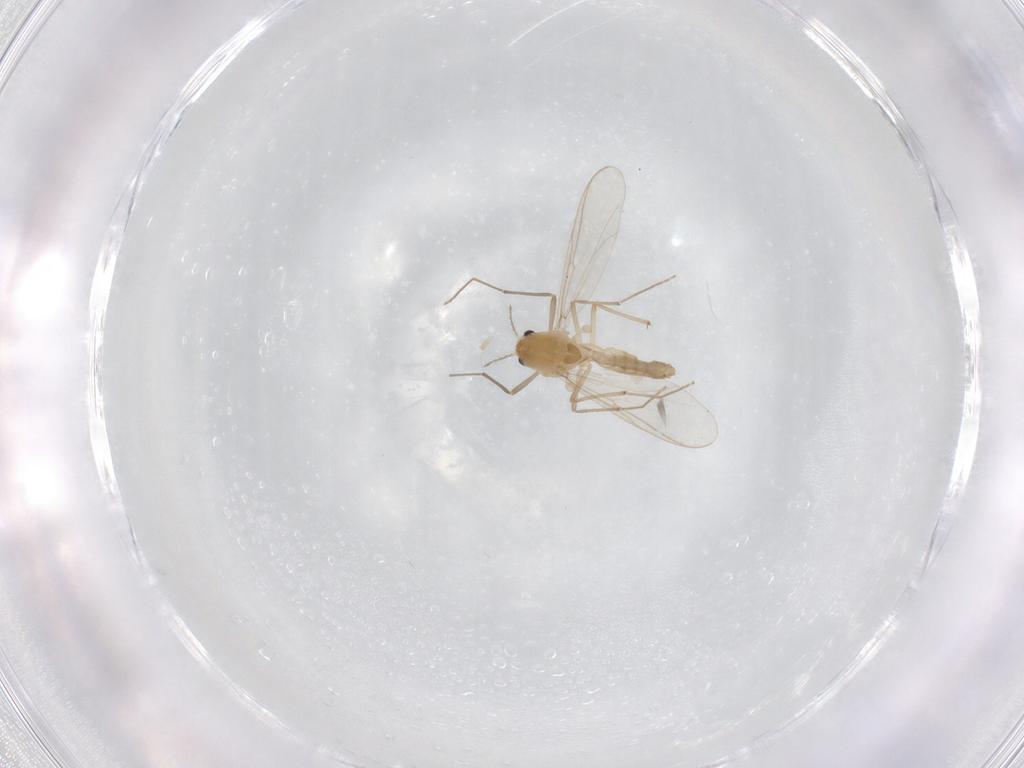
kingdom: Animalia
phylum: Arthropoda
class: Insecta
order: Diptera
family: Chironomidae
